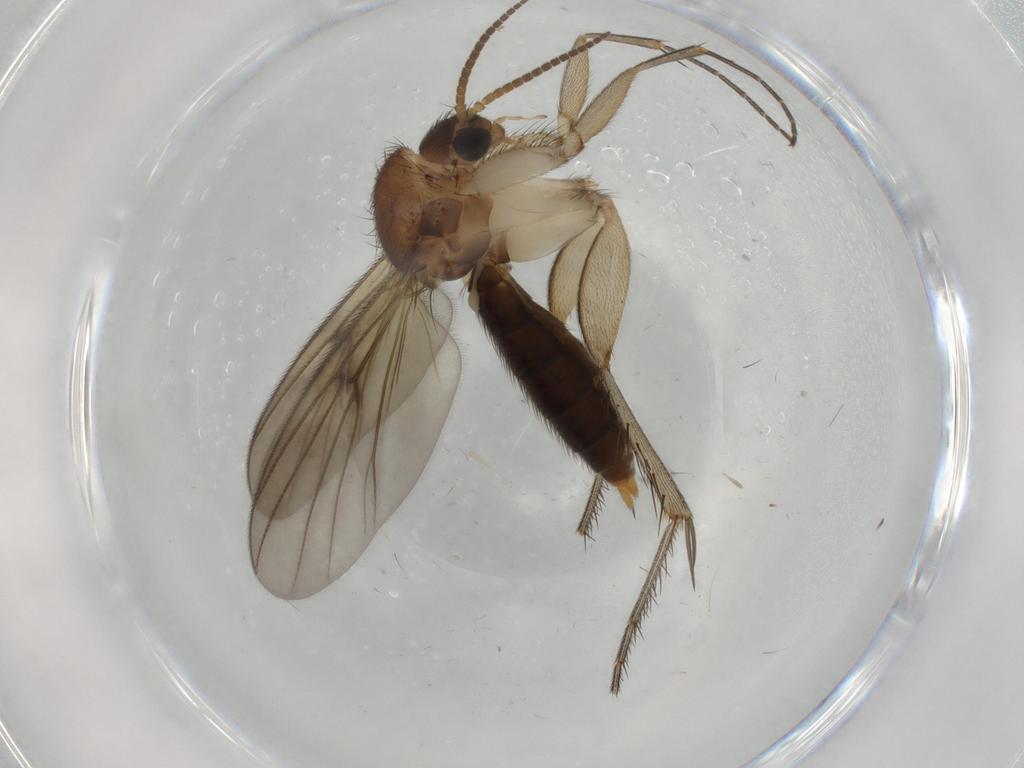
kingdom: Animalia
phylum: Arthropoda
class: Insecta
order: Diptera
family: Mycetophilidae
